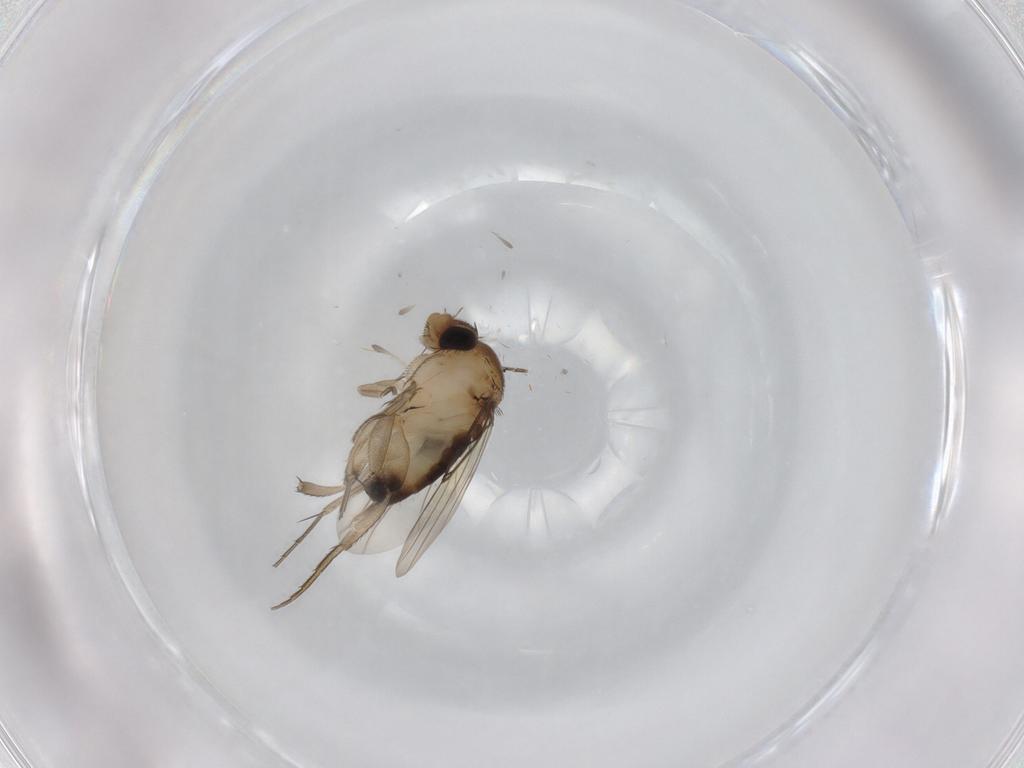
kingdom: Animalia
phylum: Arthropoda
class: Insecta
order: Diptera
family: Phoridae
